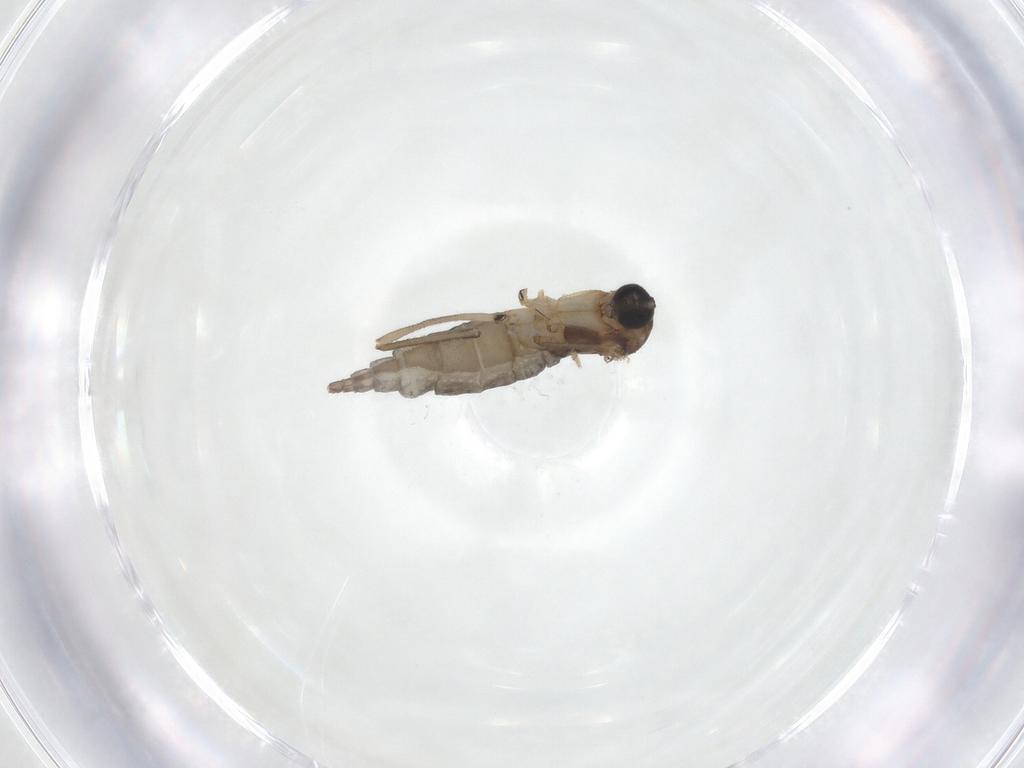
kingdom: Animalia
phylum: Arthropoda
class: Insecta
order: Diptera
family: Sciaridae
